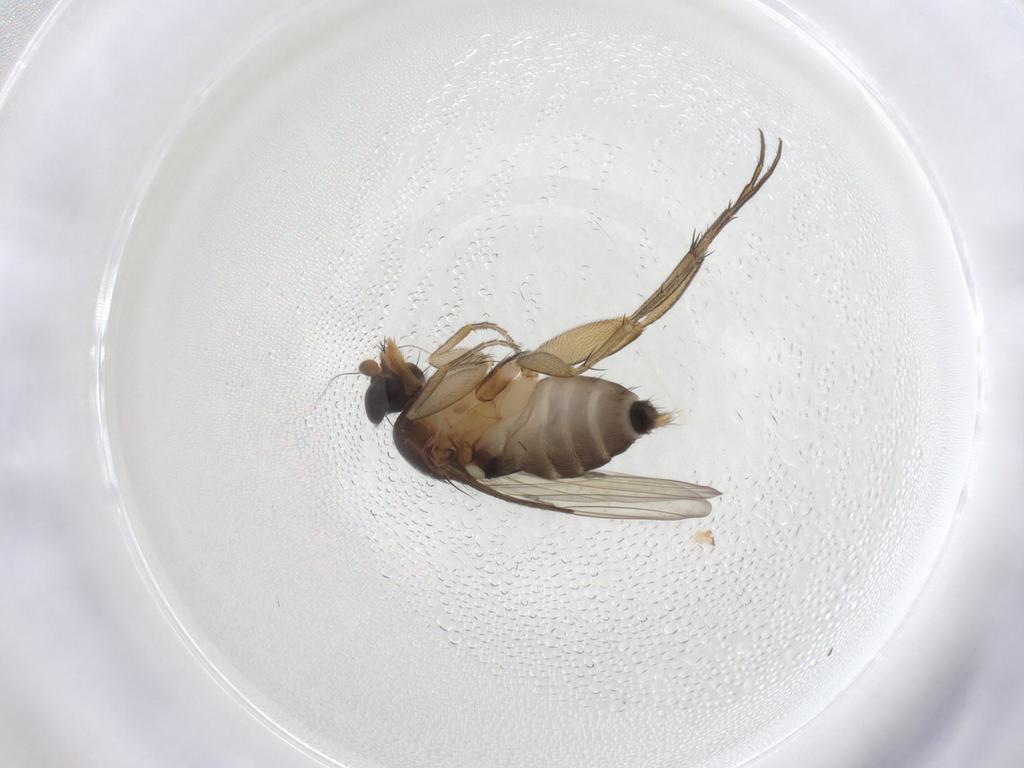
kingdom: Animalia
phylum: Arthropoda
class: Insecta
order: Diptera
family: Phoridae
